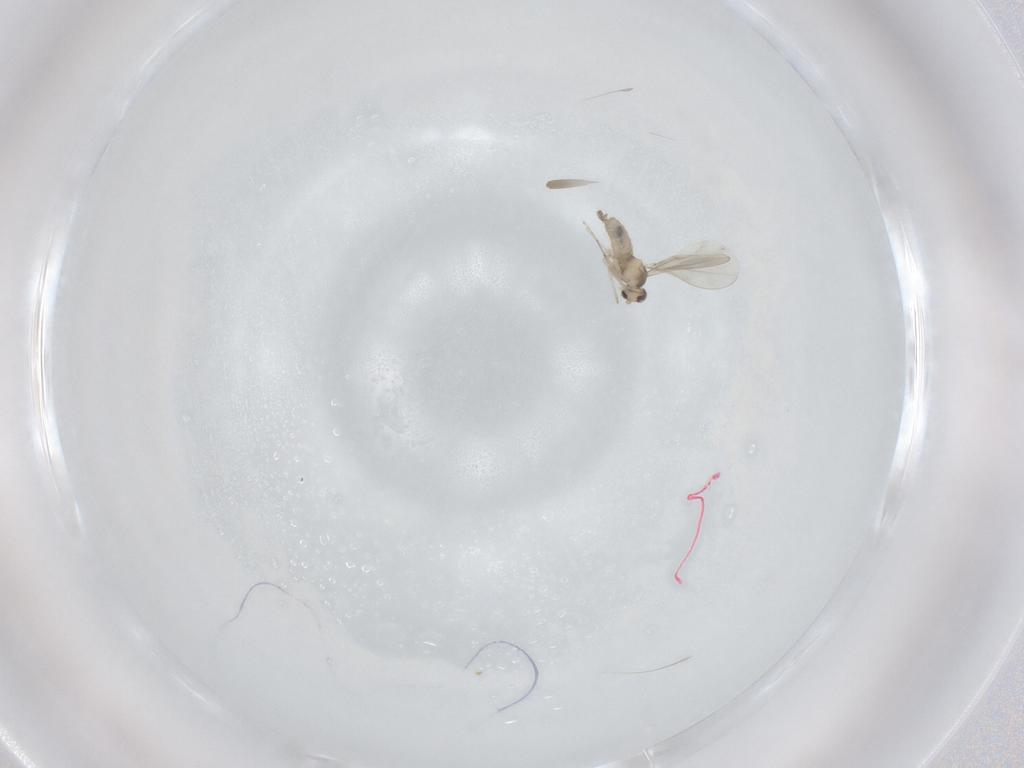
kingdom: Animalia
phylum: Arthropoda
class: Insecta
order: Diptera
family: Phoridae
